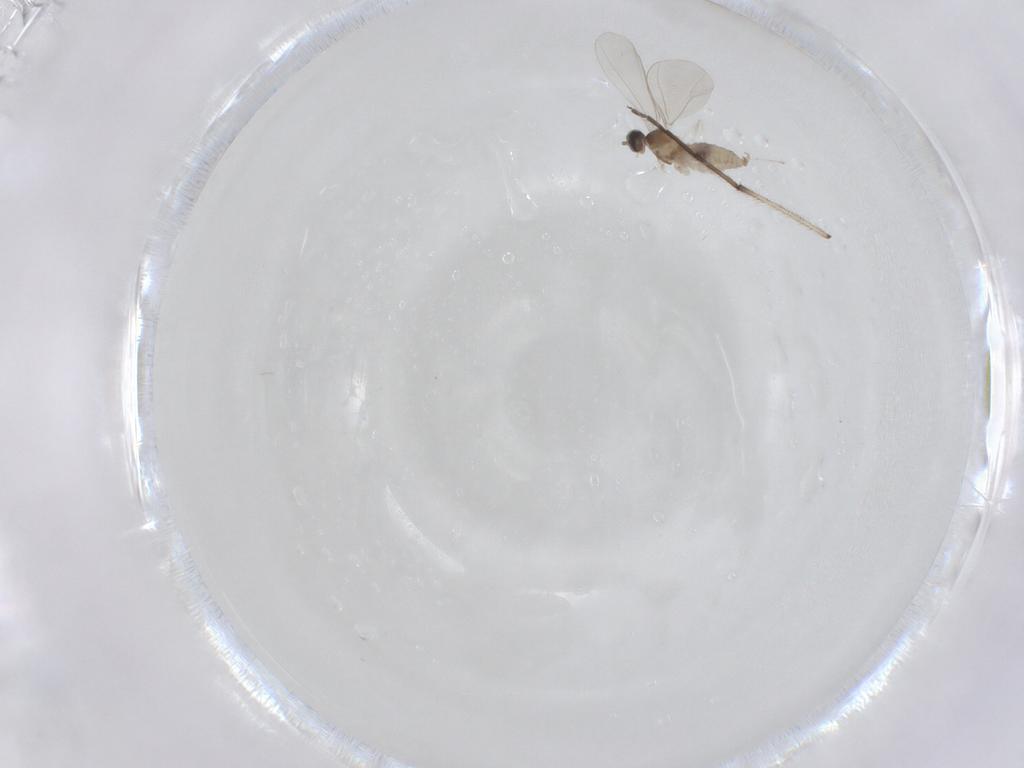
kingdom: Animalia
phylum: Arthropoda
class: Insecta
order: Diptera
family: Cecidomyiidae
